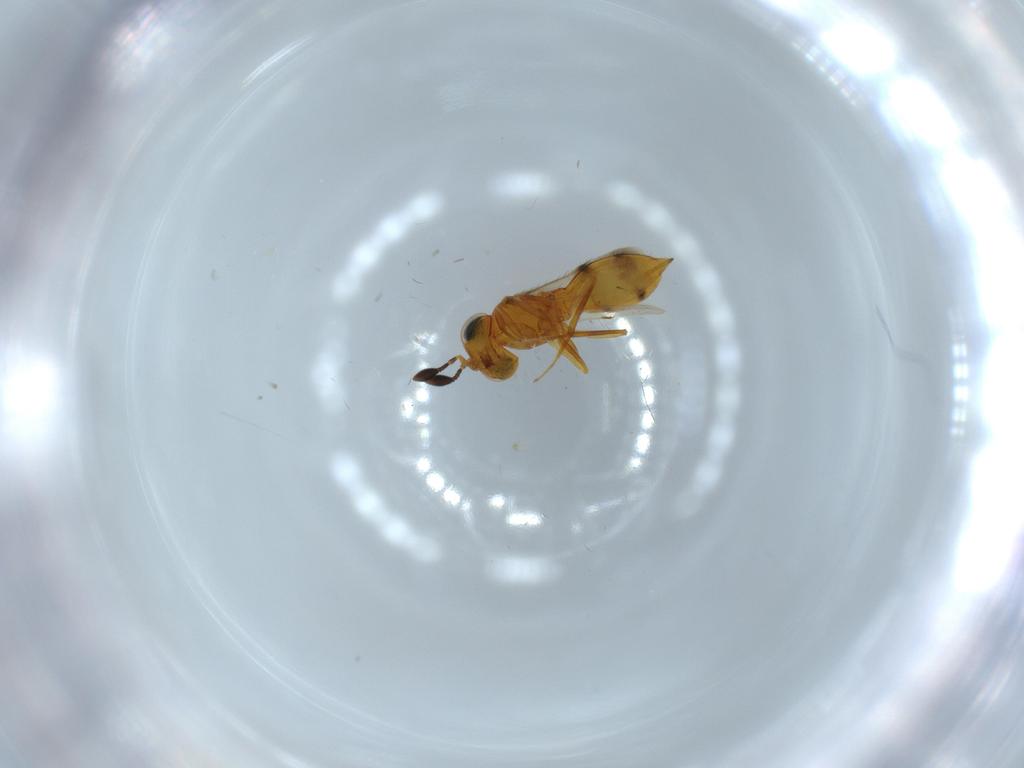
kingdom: Animalia
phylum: Arthropoda
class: Insecta
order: Hymenoptera
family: Scelionidae
